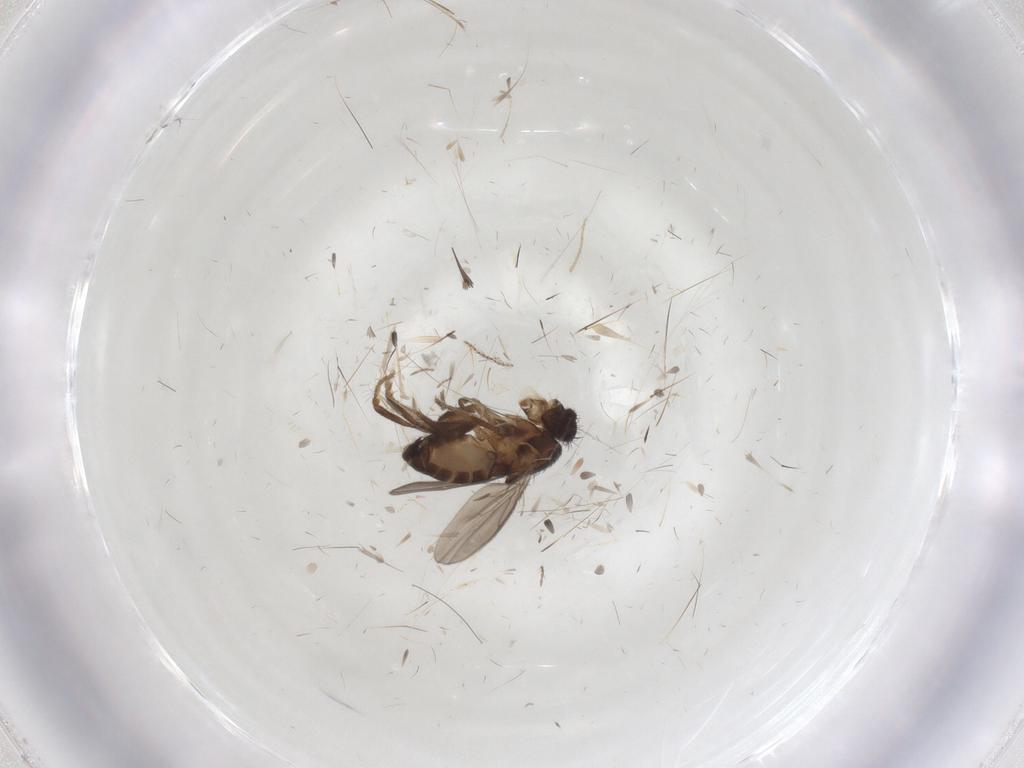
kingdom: Animalia
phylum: Arthropoda
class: Insecta
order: Diptera
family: Sphaeroceridae
